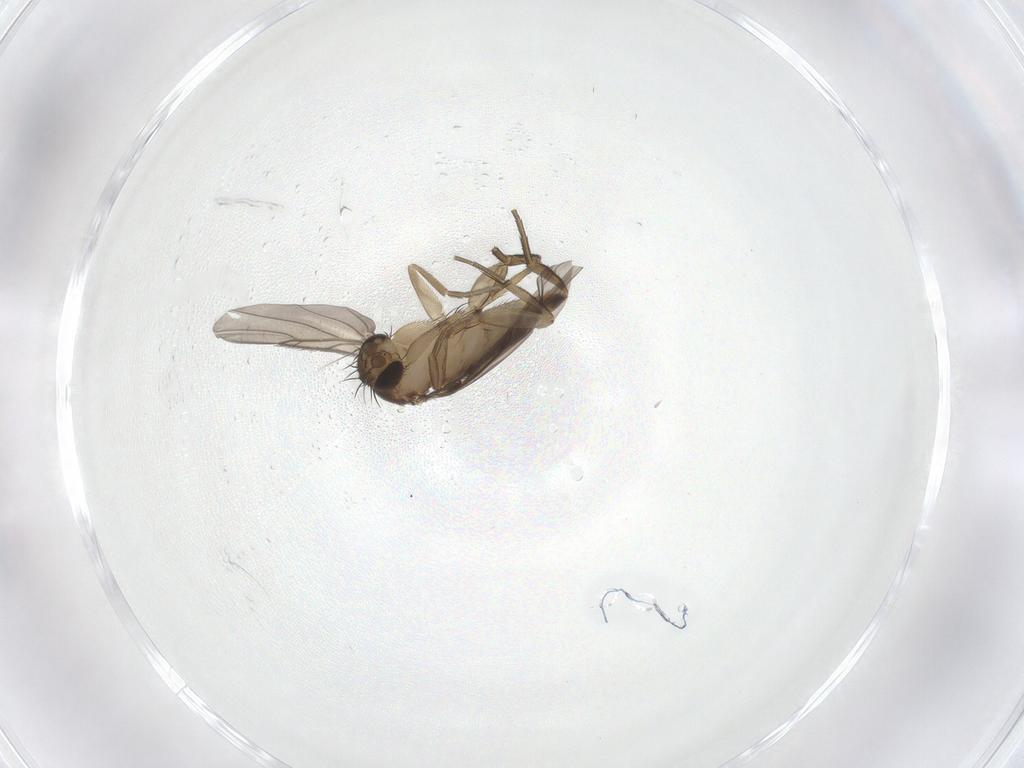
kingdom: Animalia
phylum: Arthropoda
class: Insecta
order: Diptera
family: Phoridae
